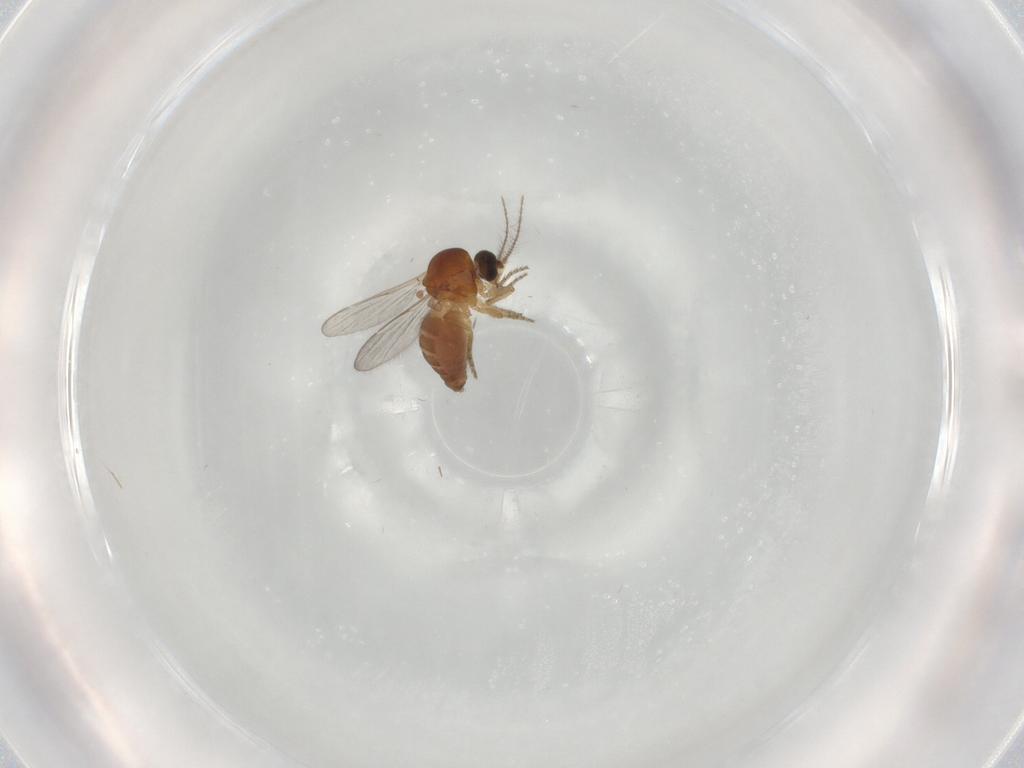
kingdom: Animalia
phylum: Arthropoda
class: Insecta
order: Diptera
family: Ceratopogonidae
